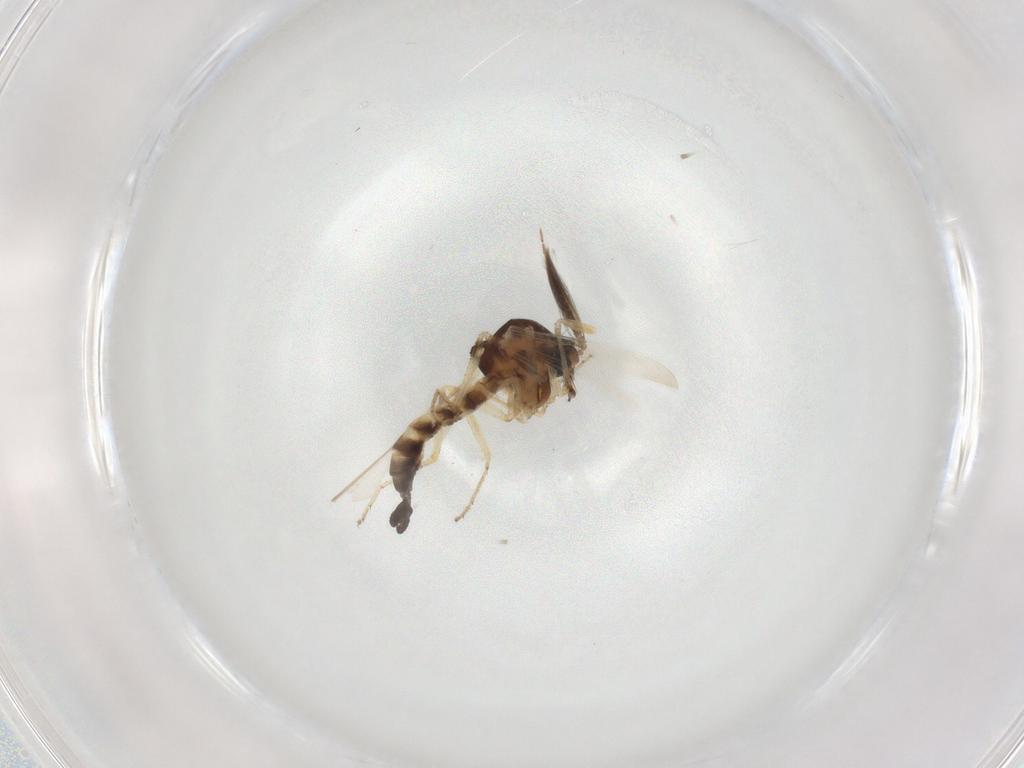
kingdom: Animalia
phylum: Arthropoda
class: Insecta
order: Diptera
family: Ceratopogonidae
